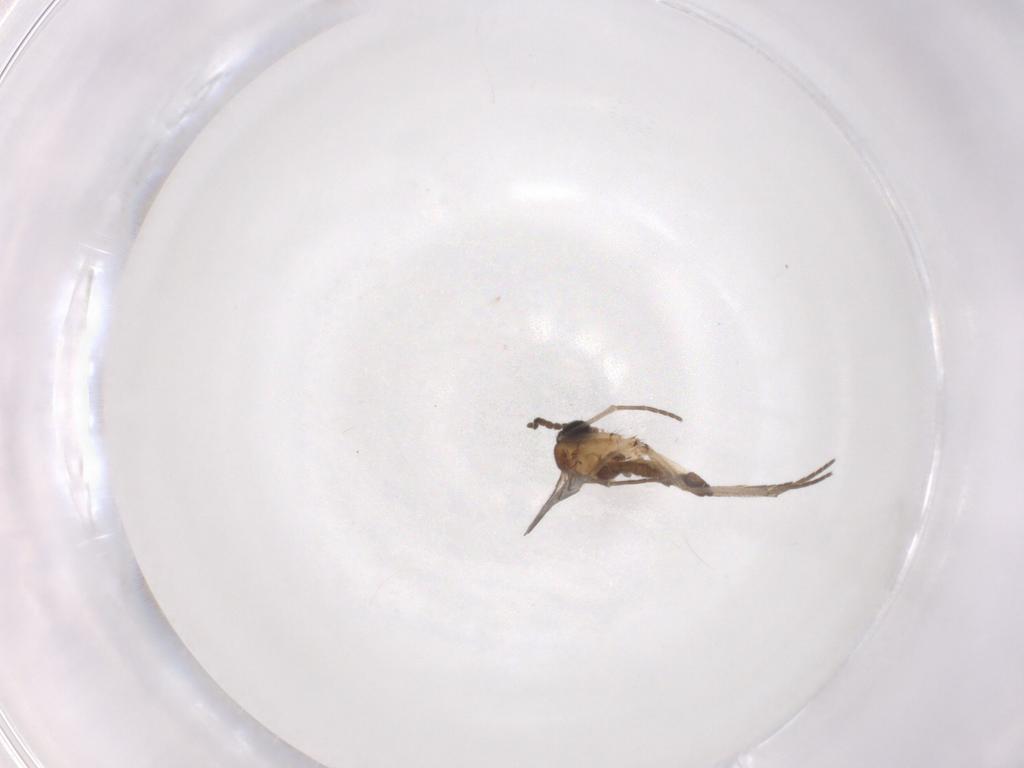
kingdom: Animalia
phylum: Arthropoda
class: Insecta
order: Diptera
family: Sciaridae
